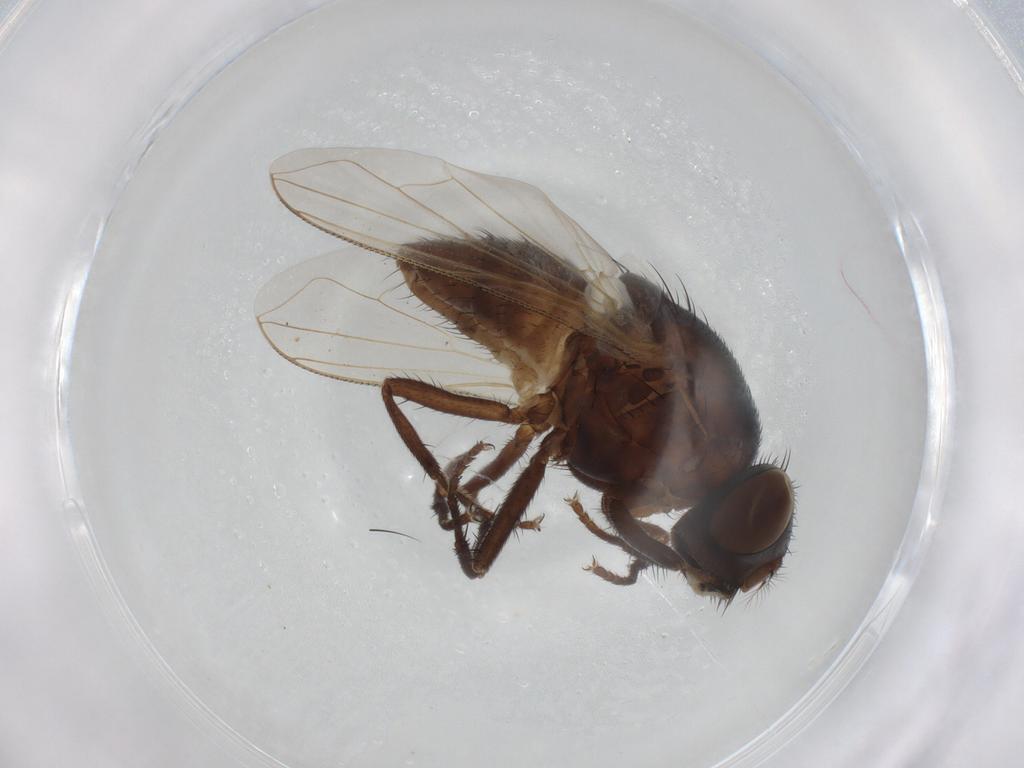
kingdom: Animalia
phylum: Arthropoda
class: Insecta
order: Diptera
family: Muscidae
